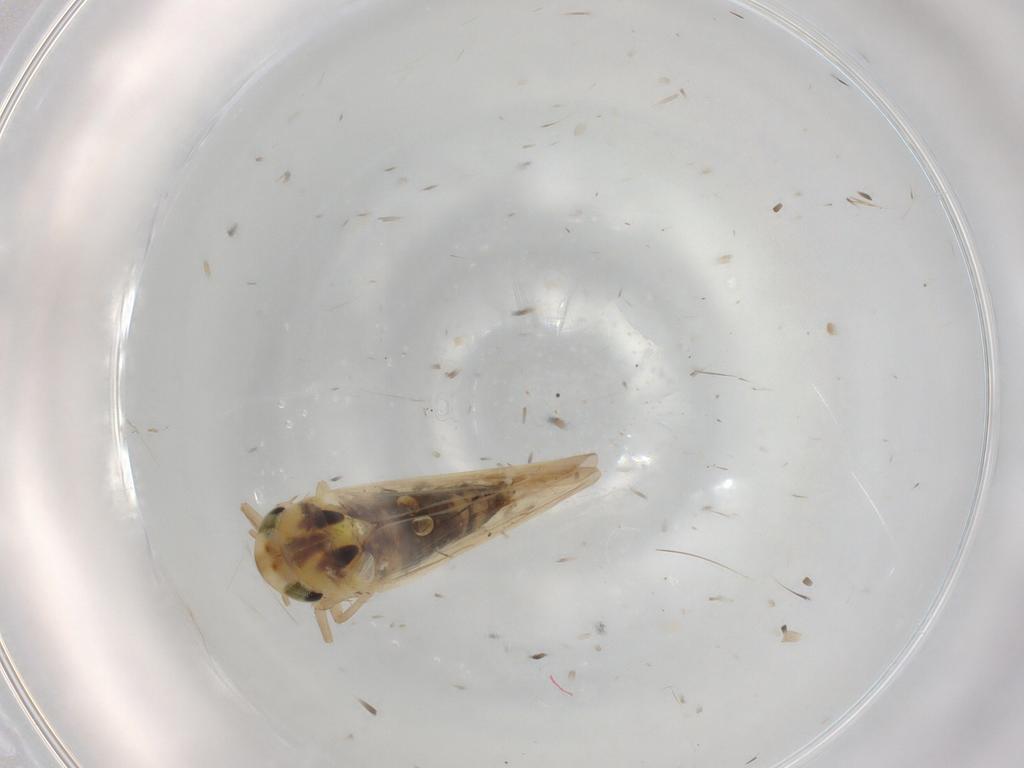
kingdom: Animalia
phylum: Arthropoda
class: Insecta
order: Hemiptera
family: Cicadellidae
